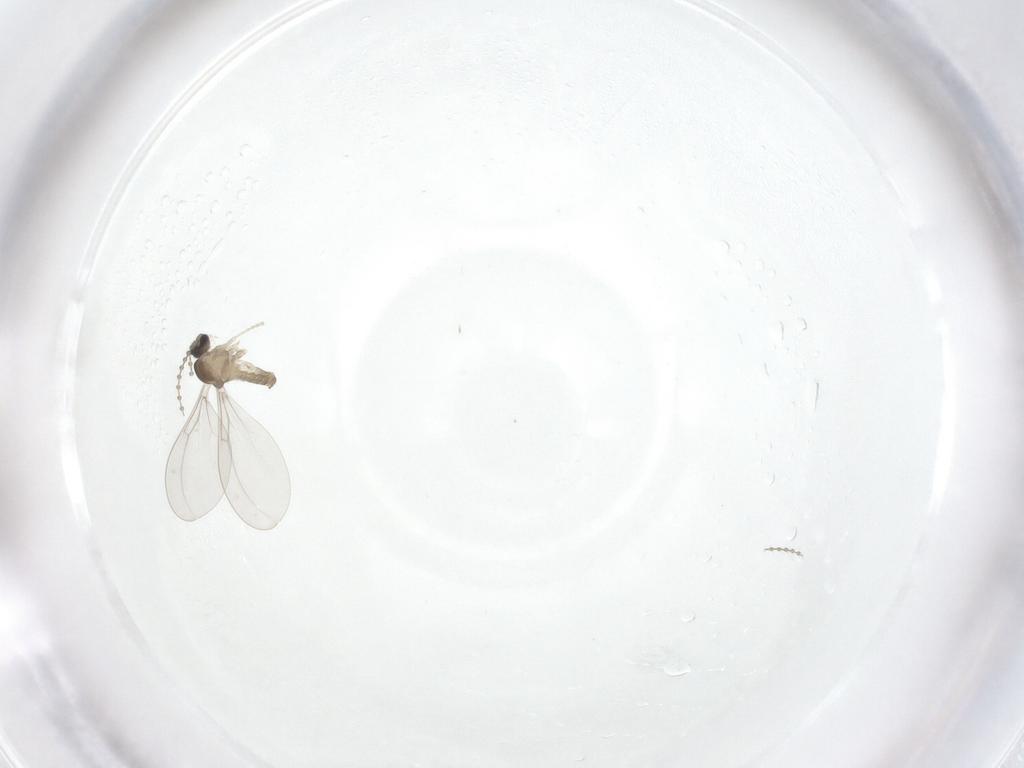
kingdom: Animalia
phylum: Arthropoda
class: Insecta
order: Diptera
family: Cecidomyiidae
